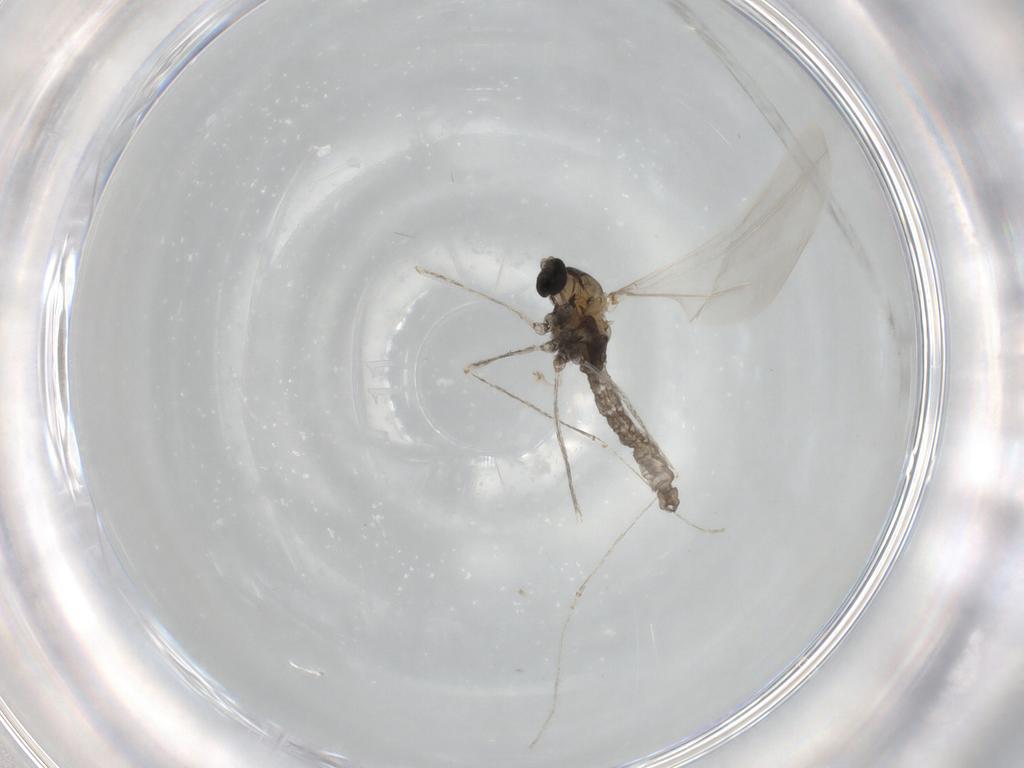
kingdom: Animalia
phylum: Arthropoda
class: Insecta
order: Diptera
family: Cecidomyiidae
